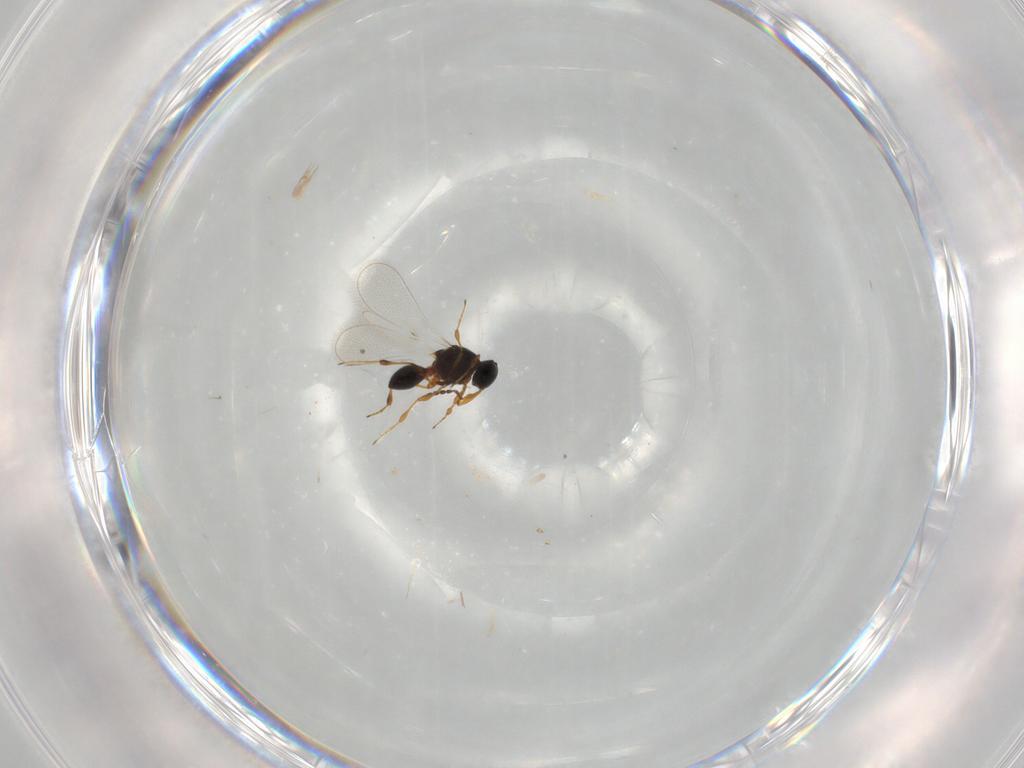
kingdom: Animalia
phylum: Arthropoda
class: Insecta
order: Hymenoptera
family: Platygastridae
